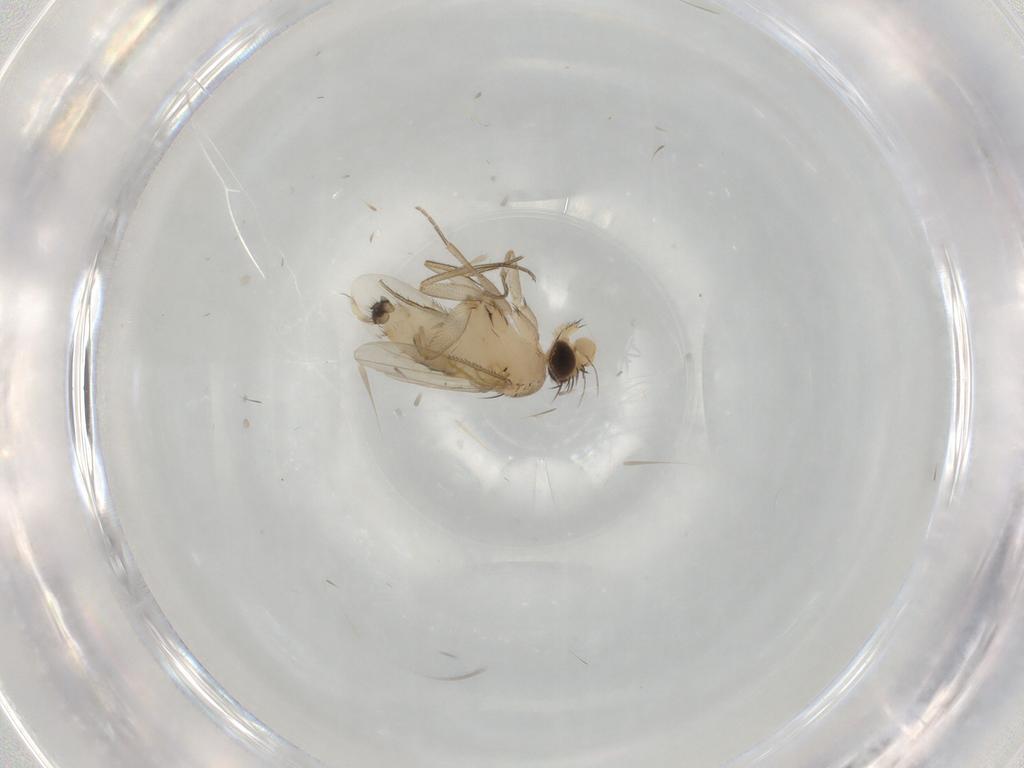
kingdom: Animalia
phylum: Arthropoda
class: Insecta
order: Diptera
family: Phoridae
